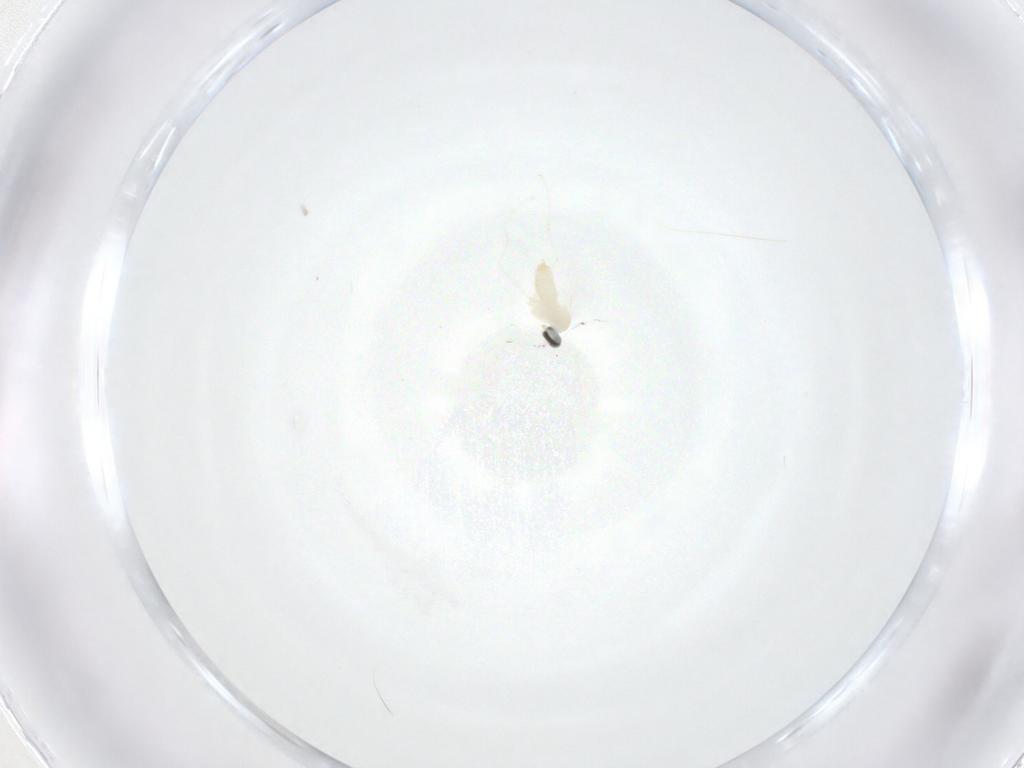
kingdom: Animalia
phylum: Arthropoda
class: Insecta
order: Diptera
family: Cecidomyiidae
